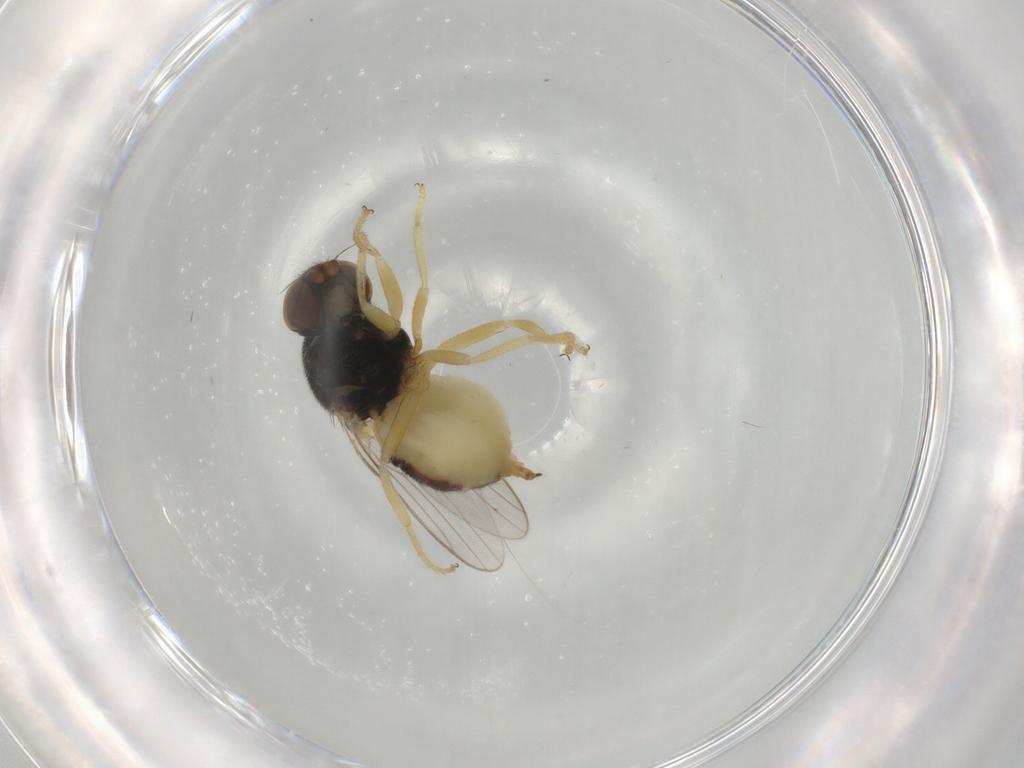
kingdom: Animalia
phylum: Arthropoda
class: Insecta
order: Diptera
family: Chloropidae
